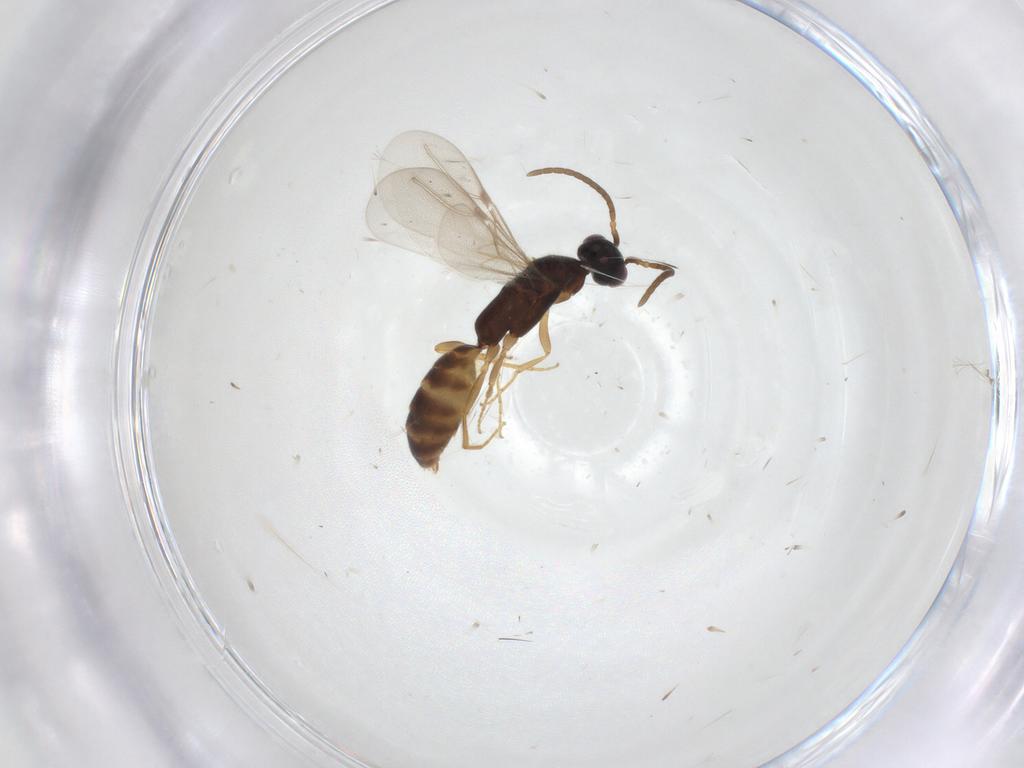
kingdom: Animalia
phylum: Arthropoda
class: Insecta
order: Hymenoptera
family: Bethylidae
